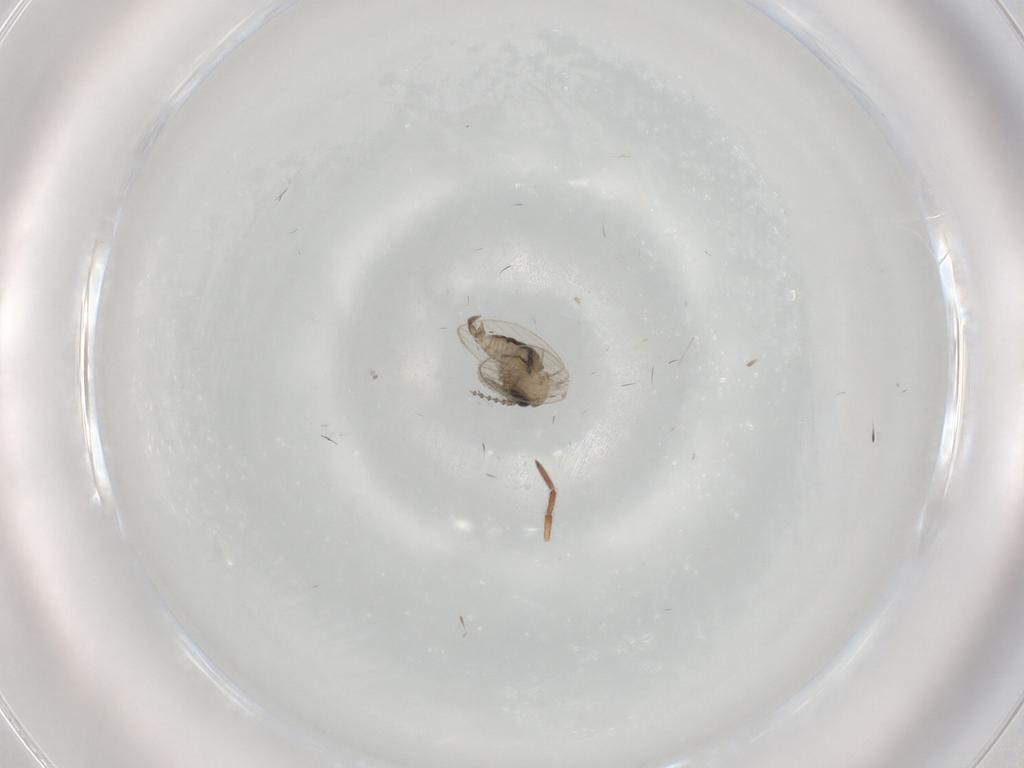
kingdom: Animalia
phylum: Arthropoda
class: Insecta
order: Diptera
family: Psychodidae
